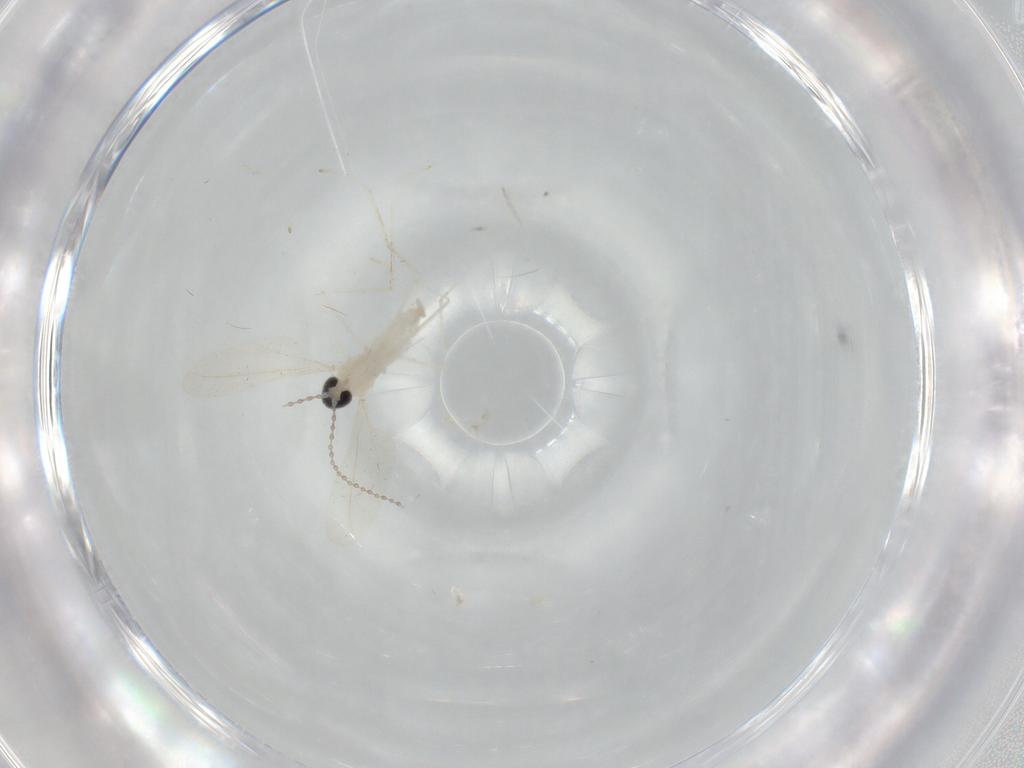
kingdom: Animalia
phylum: Arthropoda
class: Insecta
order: Diptera
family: Cecidomyiidae
